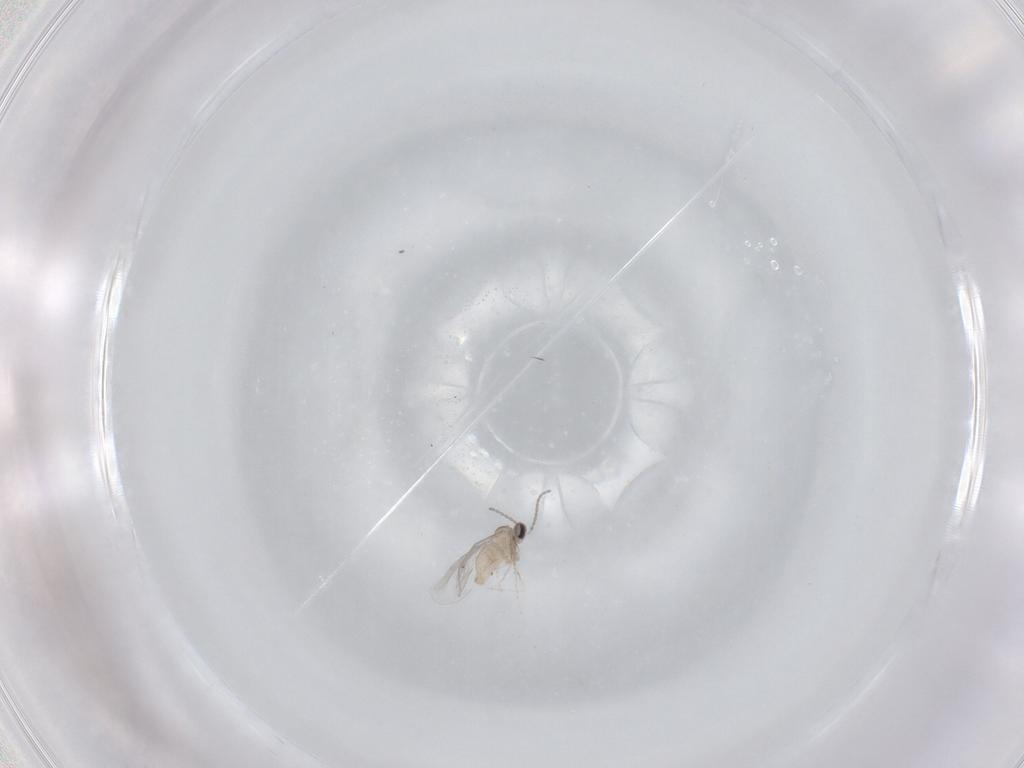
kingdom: Animalia
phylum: Arthropoda
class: Insecta
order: Diptera
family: Cecidomyiidae
